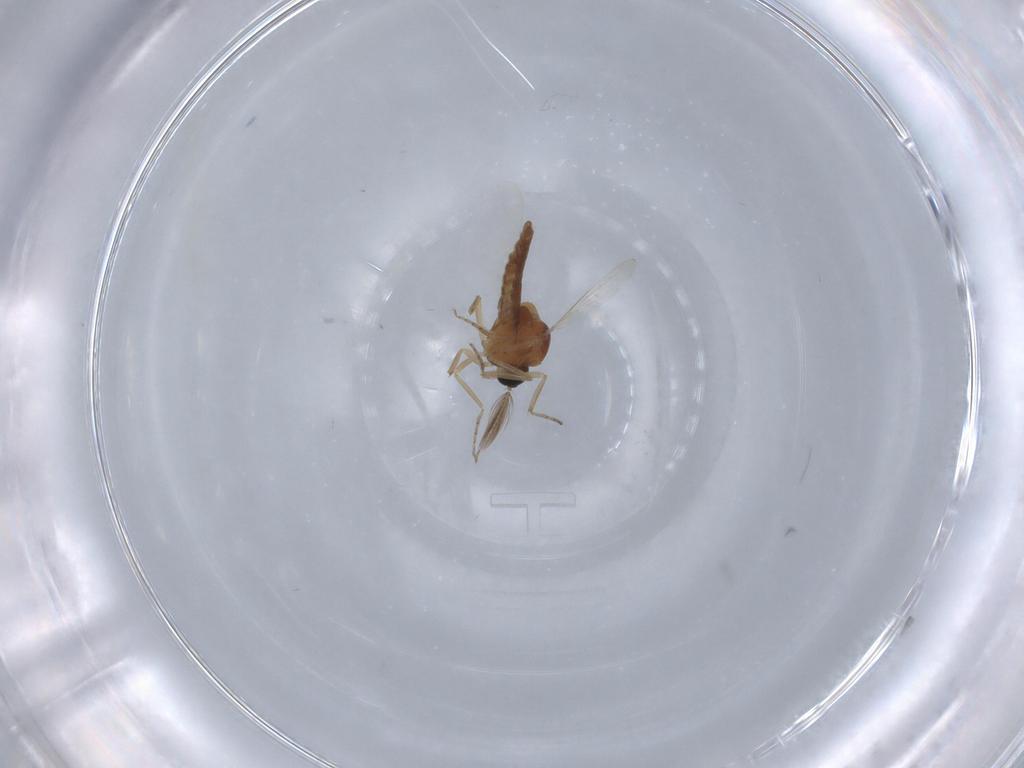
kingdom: Animalia
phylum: Arthropoda
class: Insecta
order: Diptera
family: Ceratopogonidae
